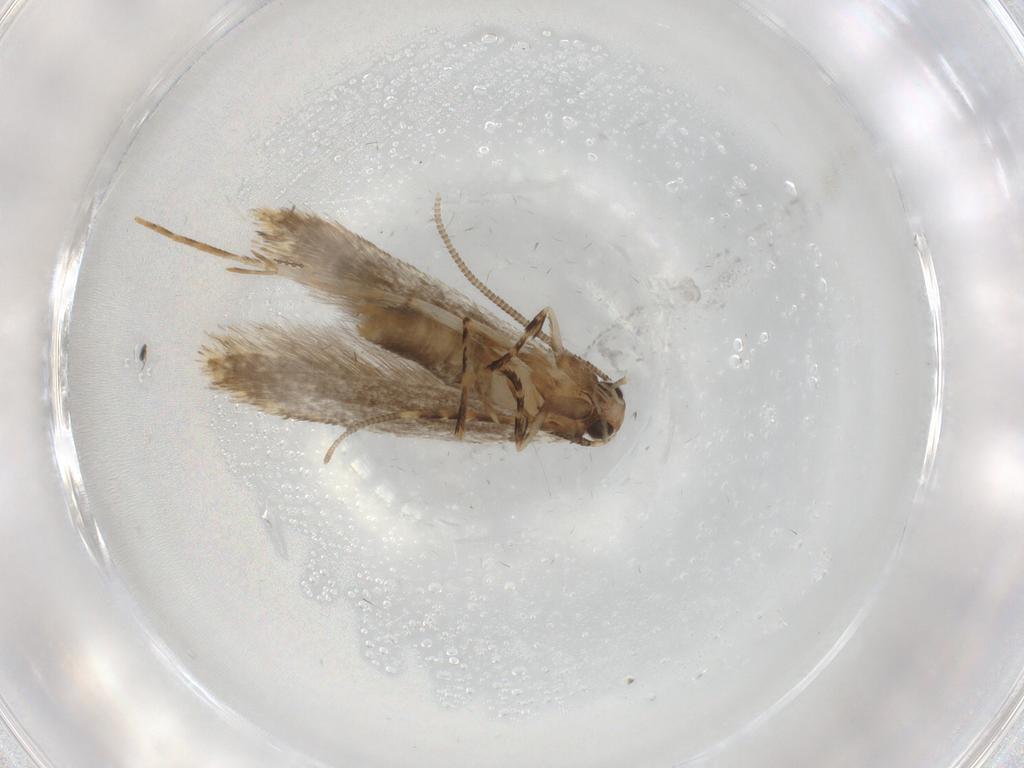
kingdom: Animalia
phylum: Arthropoda
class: Insecta
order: Lepidoptera
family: Tineidae
